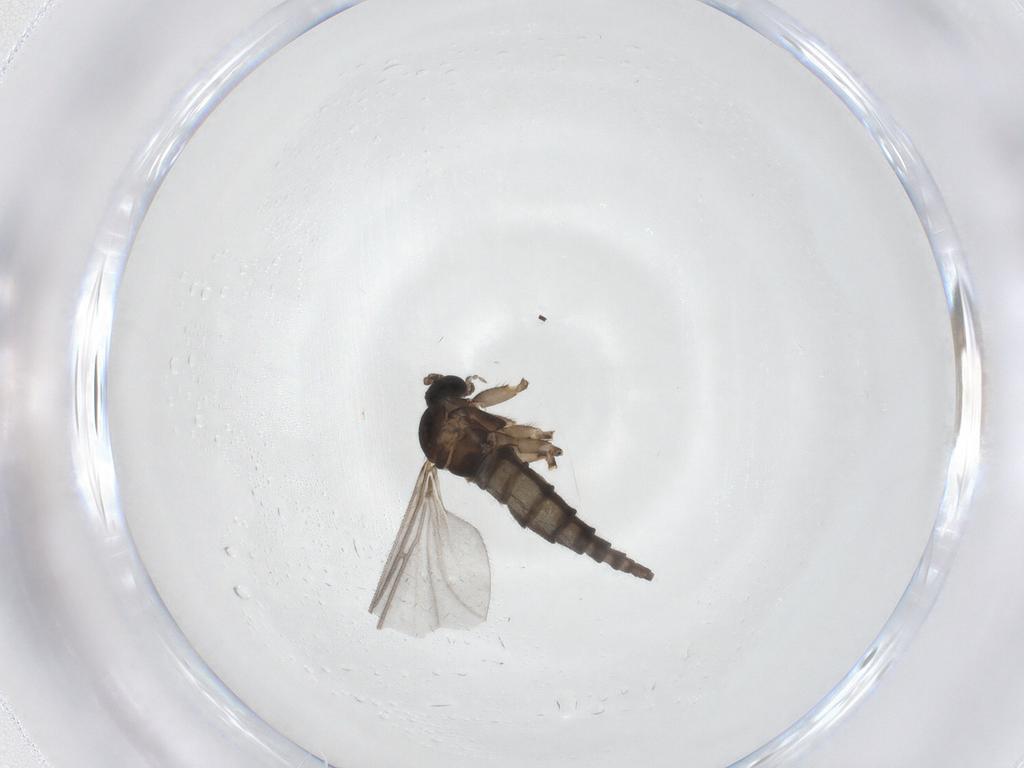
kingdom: Animalia
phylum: Arthropoda
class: Insecta
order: Diptera
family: Sciaridae
